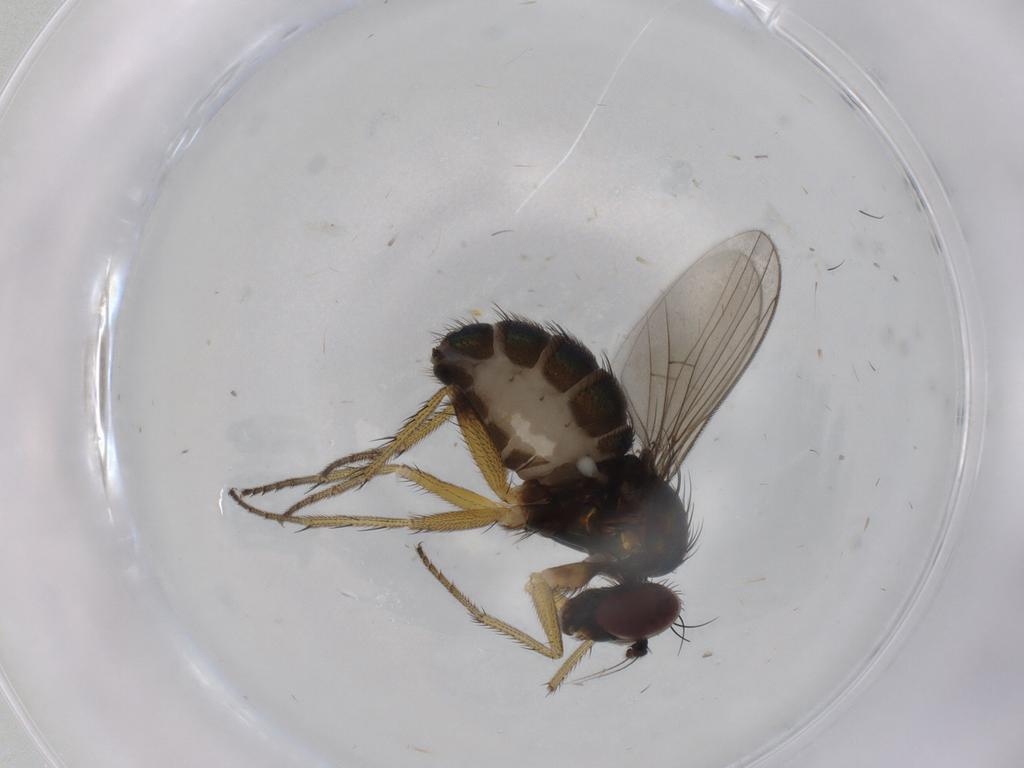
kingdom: Animalia
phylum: Arthropoda
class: Insecta
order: Diptera
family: Dolichopodidae
